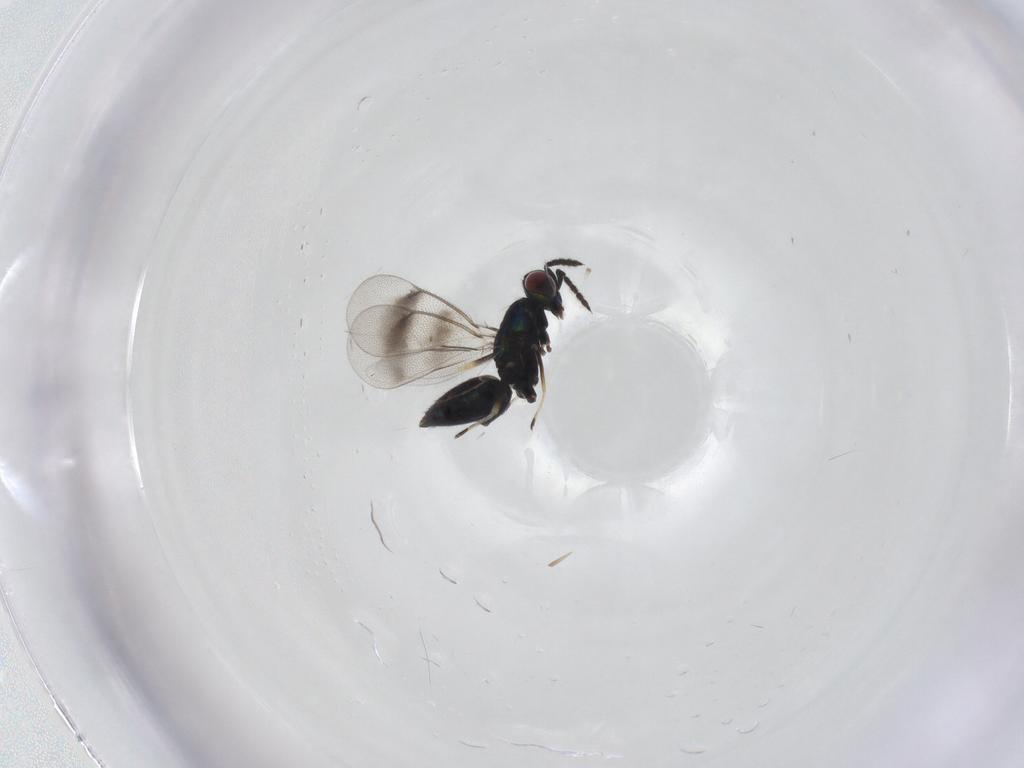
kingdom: Animalia
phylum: Arthropoda
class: Insecta
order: Hymenoptera
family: Eulophidae
